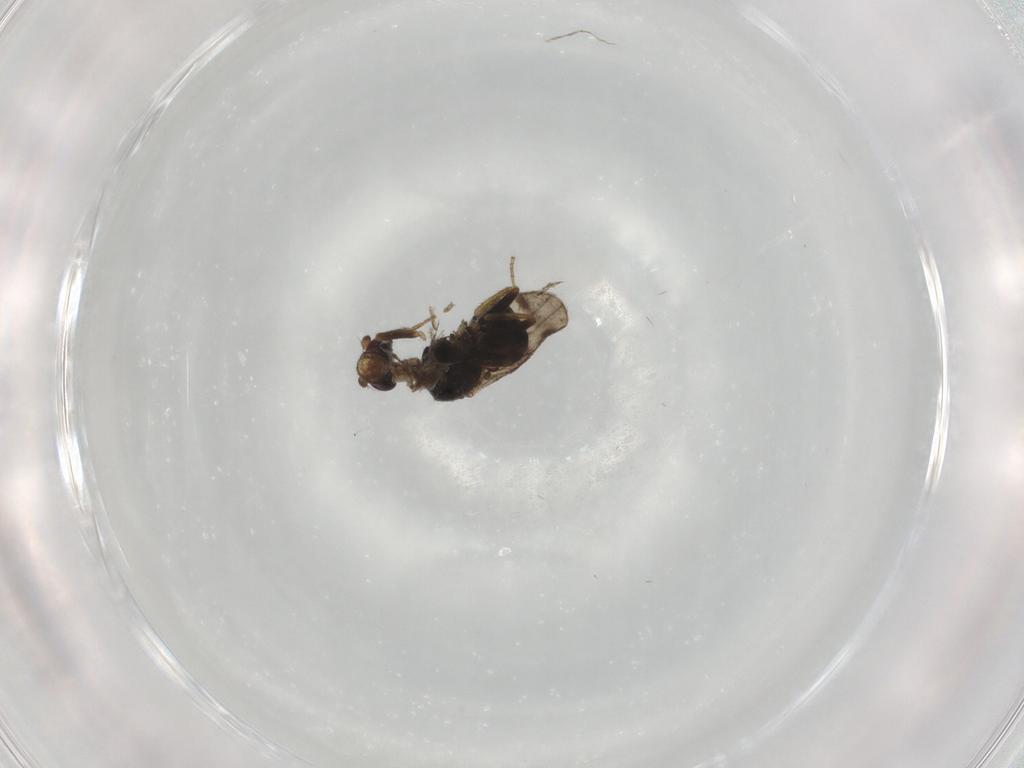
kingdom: Animalia
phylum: Arthropoda
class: Insecta
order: Diptera
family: Sphaeroceridae
